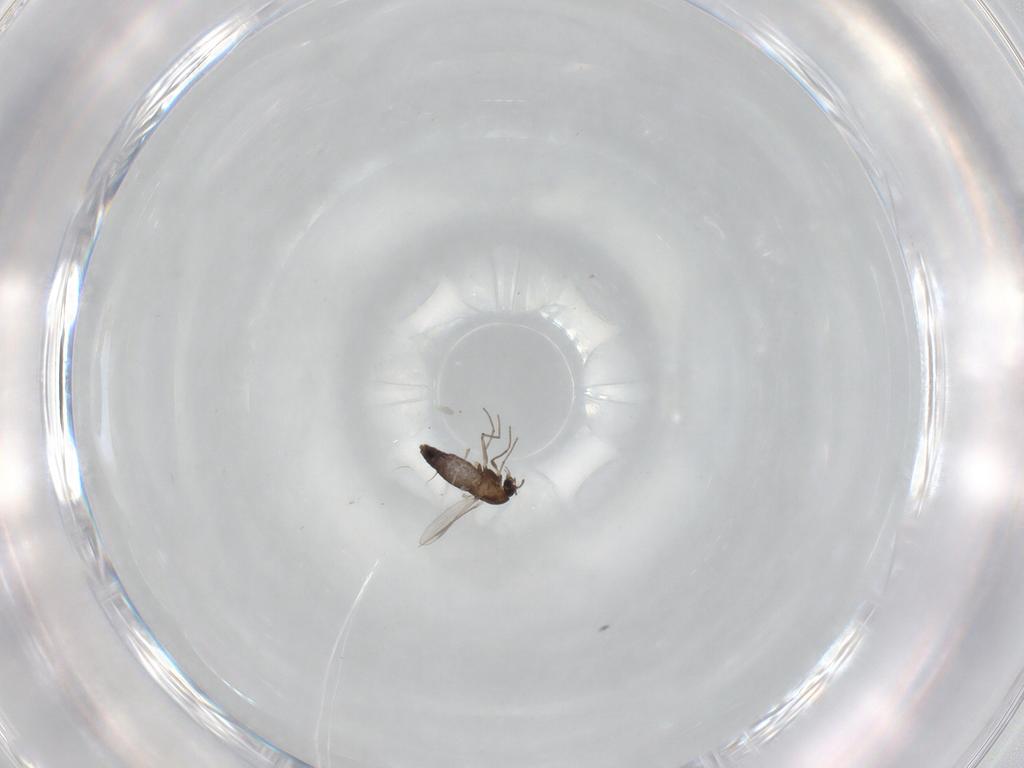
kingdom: Animalia
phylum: Arthropoda
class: Insecta
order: Diptera
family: Chironomidae
